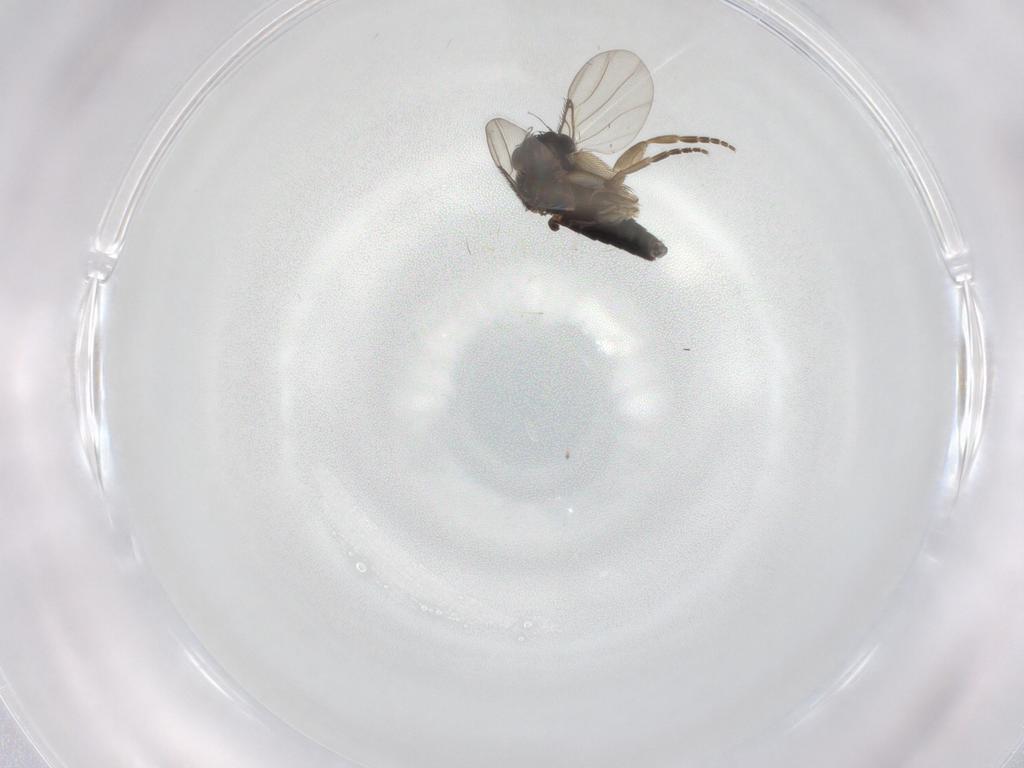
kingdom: Animalia
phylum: Arthropoda
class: Insecta
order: Diptera
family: Phoridae
